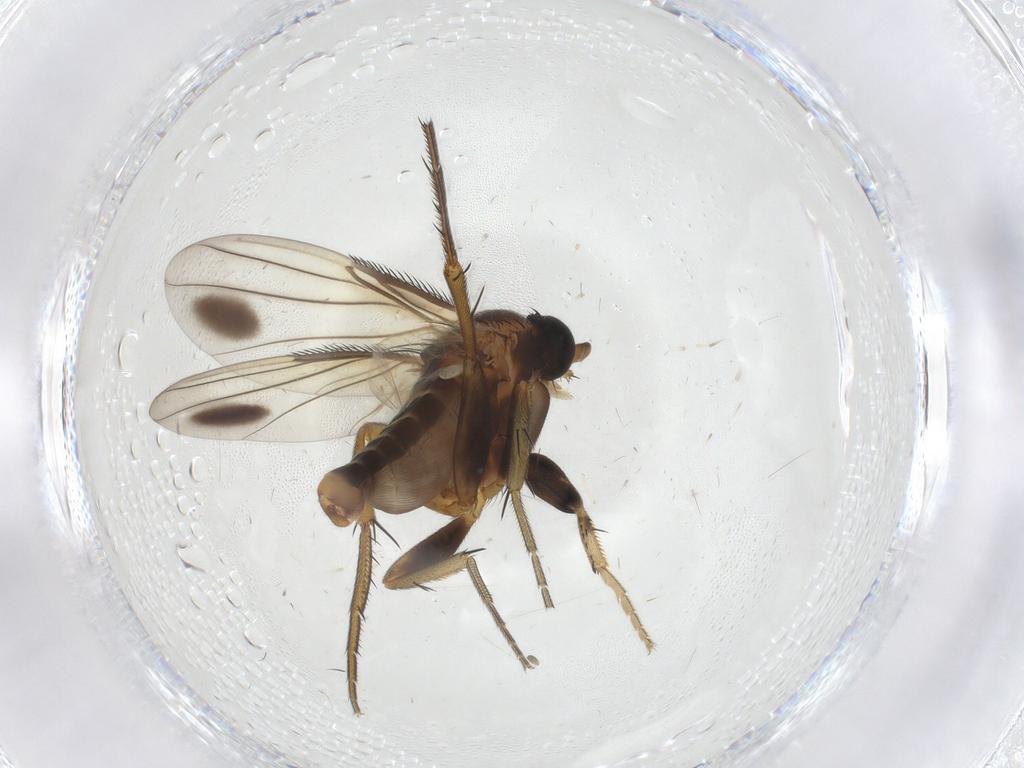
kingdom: Animalia
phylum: Arthropoda
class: Insecta
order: Diptera
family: Phoridae
